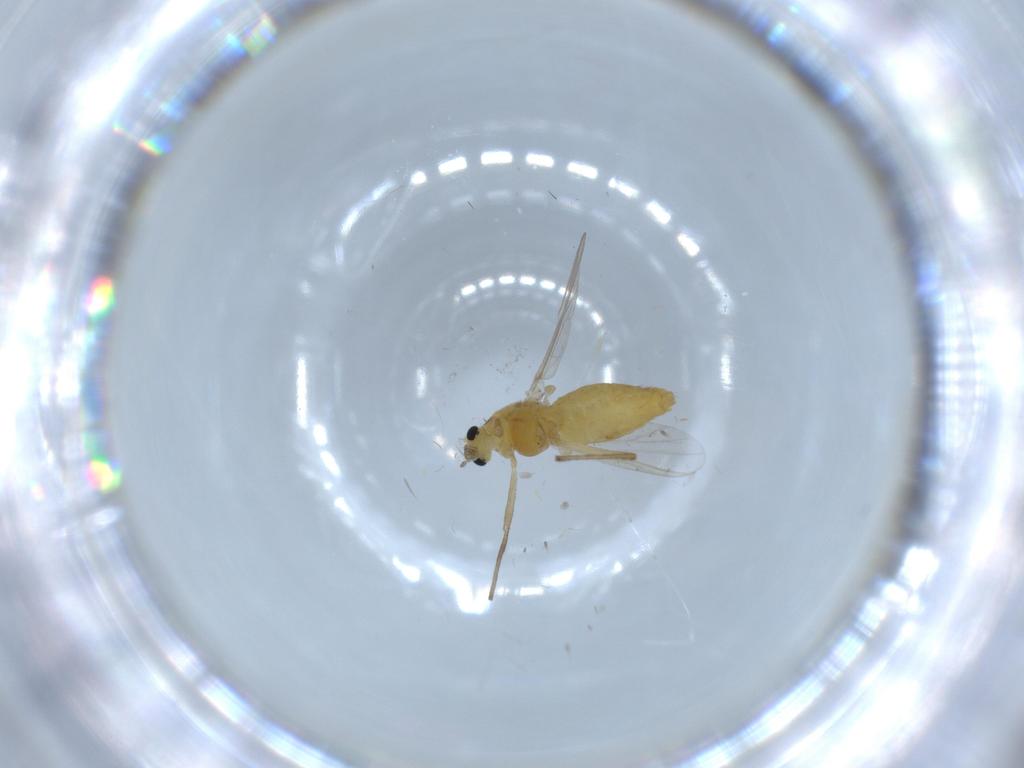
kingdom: Animalia
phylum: Arthropoda
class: Insecta
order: Diptera
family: Chironomidae
